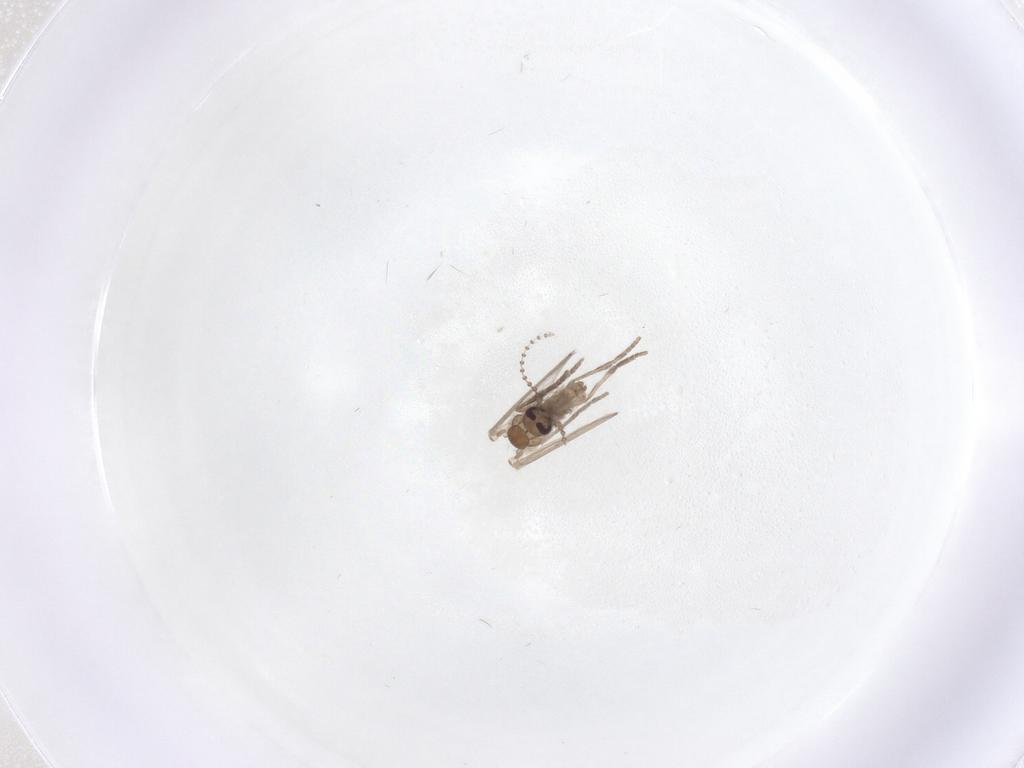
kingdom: Animalia
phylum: Arthropoda
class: Insecta
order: Diptera
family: Psychodidae
